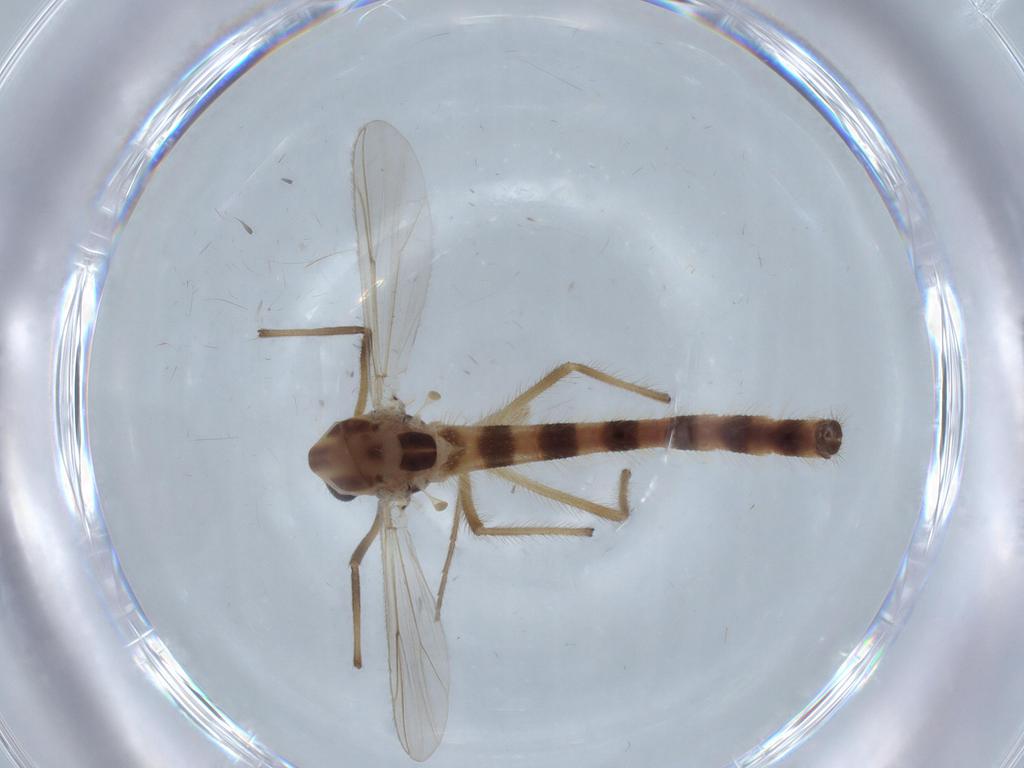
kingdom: Animalia
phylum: Arthropoda
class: Insecta
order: Diptera
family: Chironomidae
